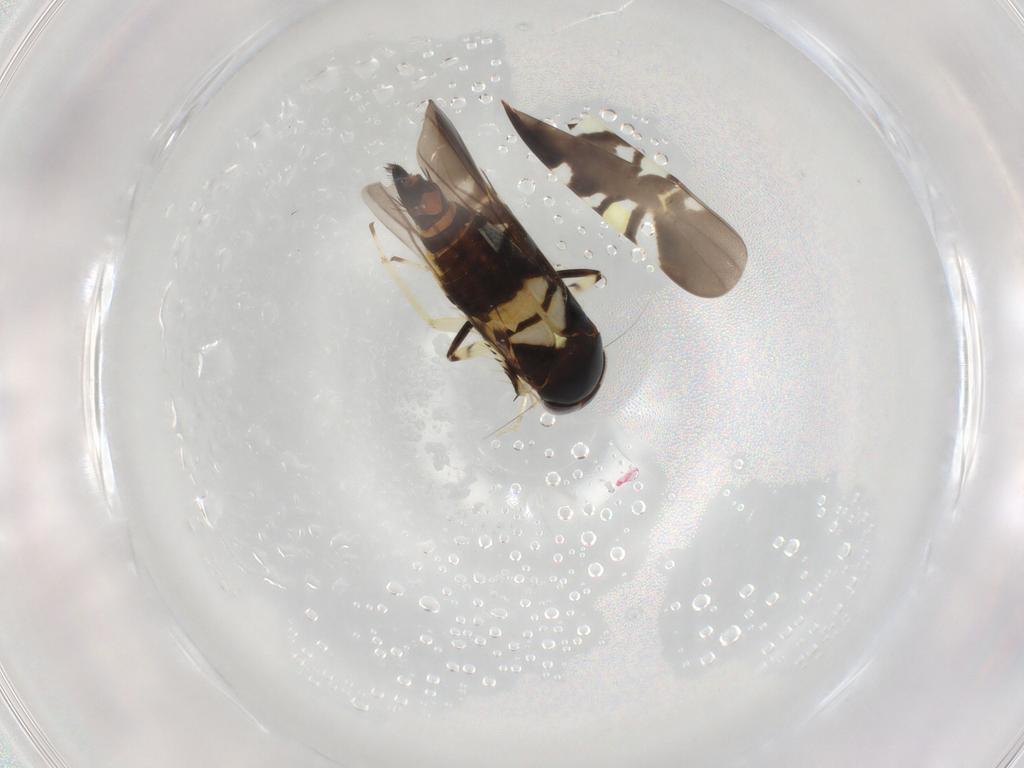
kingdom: Animalia
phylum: Arthropoda
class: Insecta
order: Hemiptera
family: Cicadellidae
